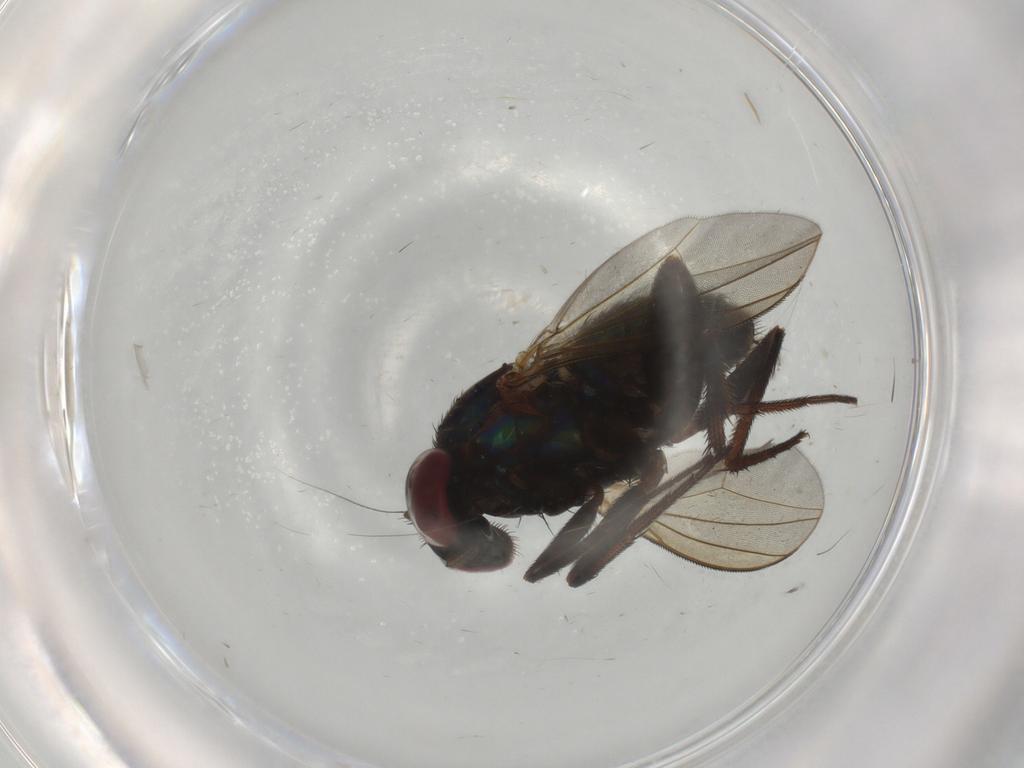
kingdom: Animalia
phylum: Arthropoda
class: Insecta
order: Diptera
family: Dolichopodidae
